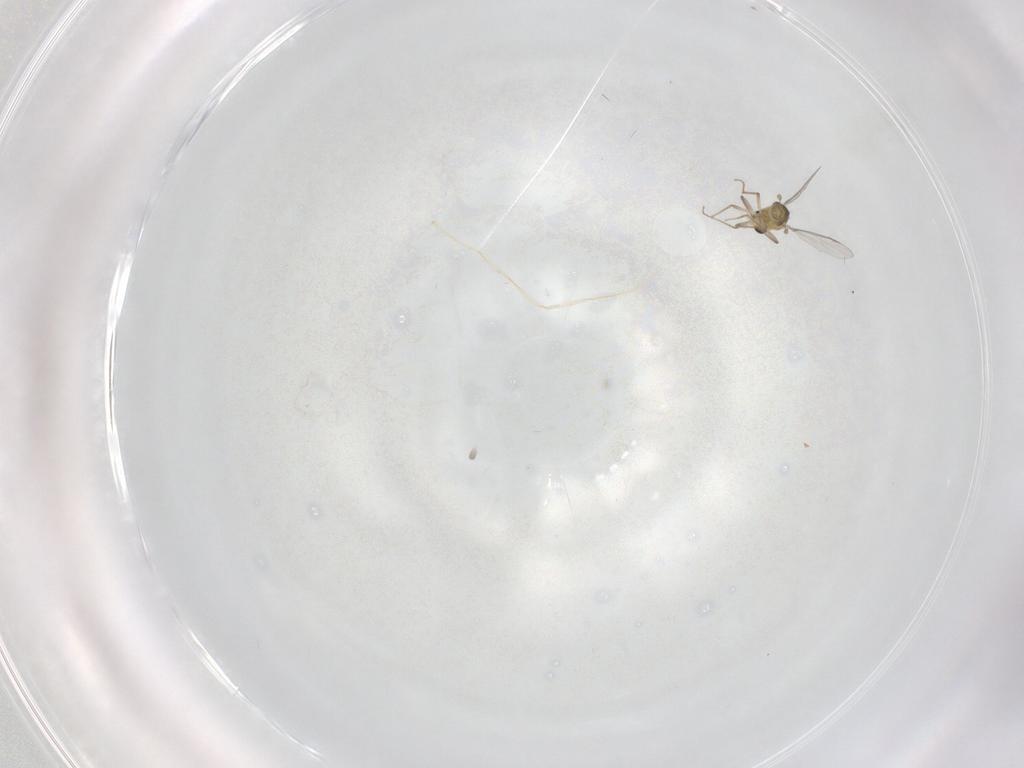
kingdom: Animalia
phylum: Arthropoda
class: Insecta
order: Diptera
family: Chironomidae
